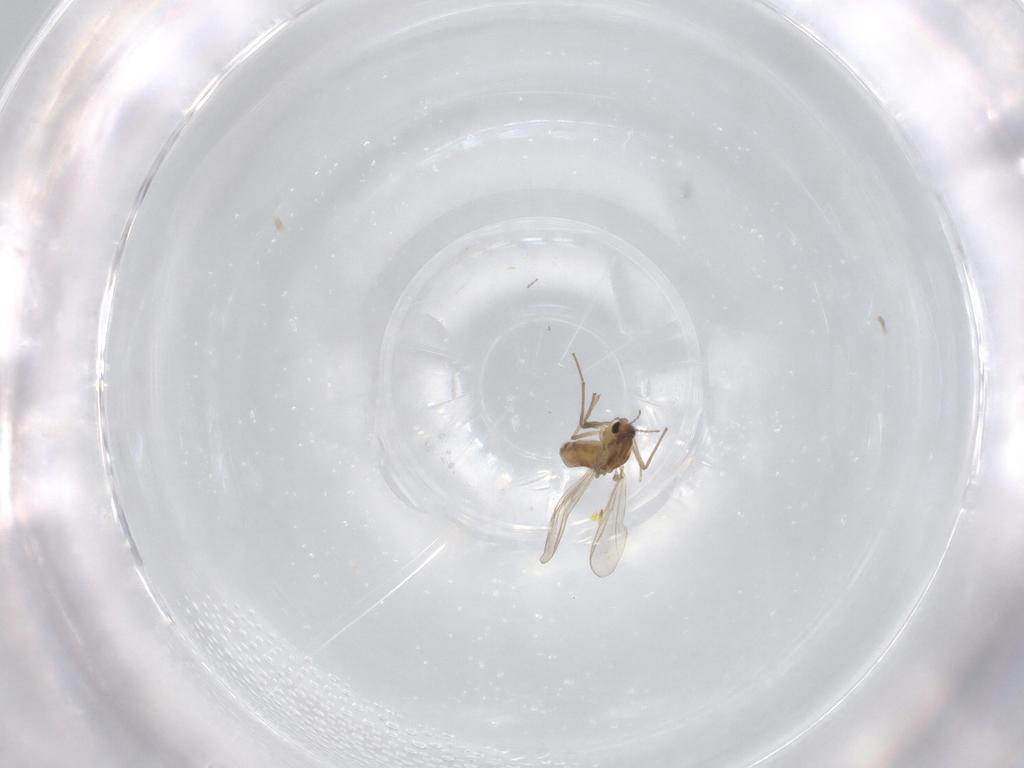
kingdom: Animalia
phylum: Arthropoda
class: Insecta
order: Diptera
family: Chironomidae
